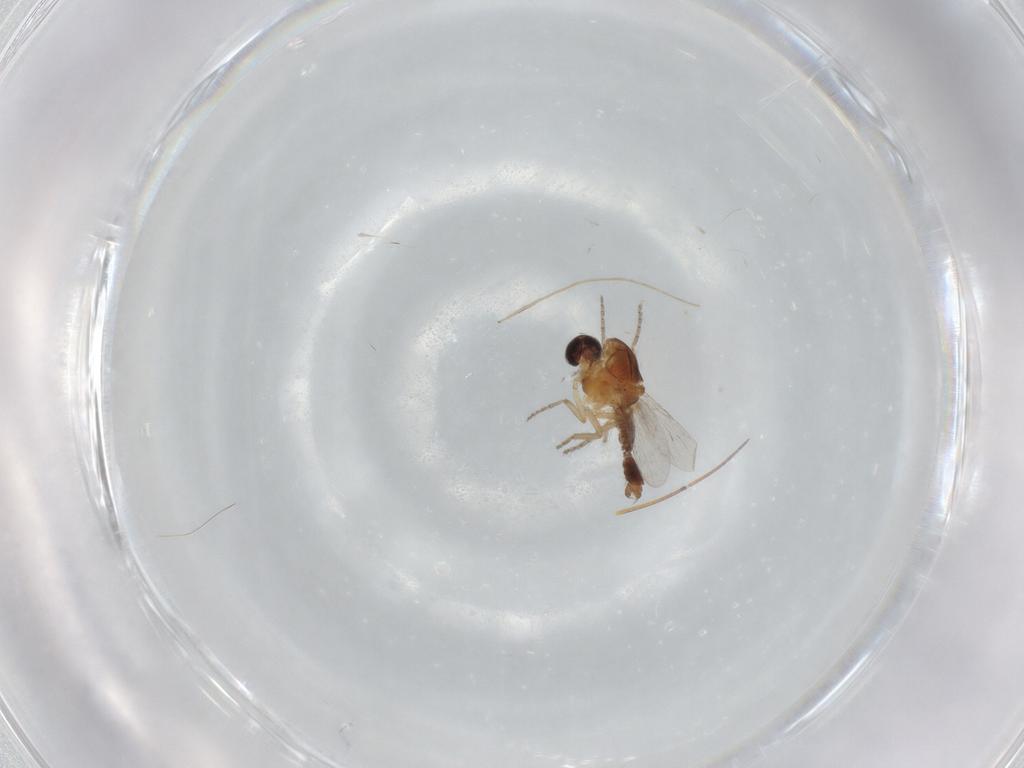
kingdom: Animalia
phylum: Arthropoda
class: Insecta
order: Diptera
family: Ceratopogonidae
